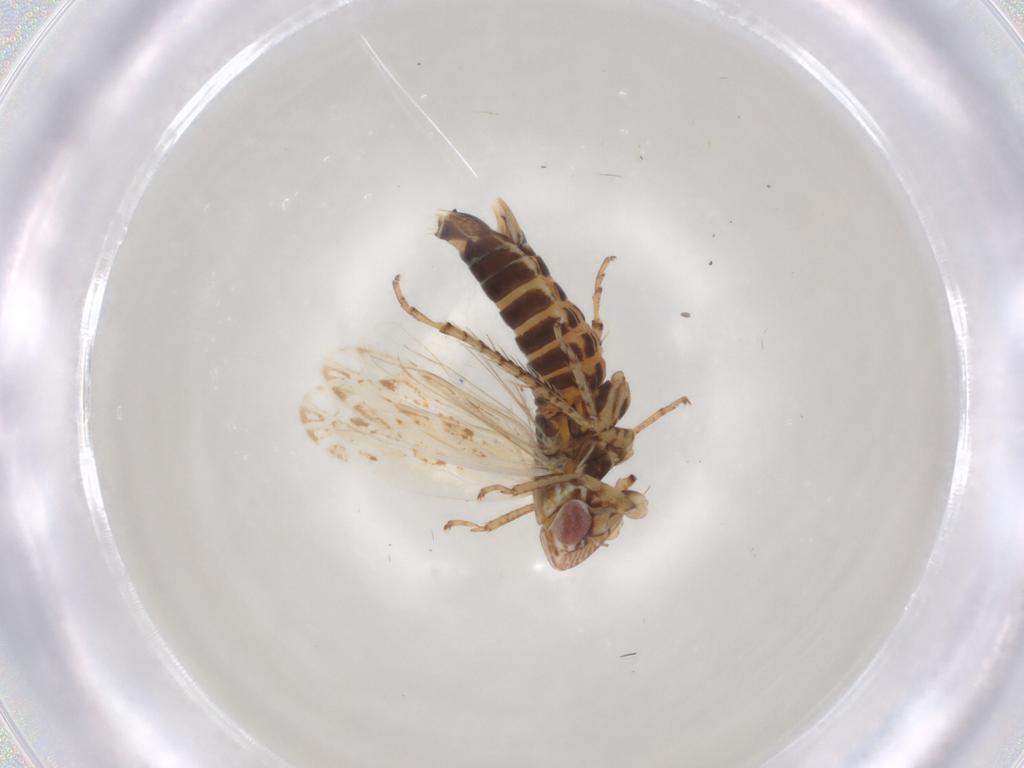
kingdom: Animalia
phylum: Arthropoda
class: Insecta
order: Hemiptera
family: Cicadellidae
